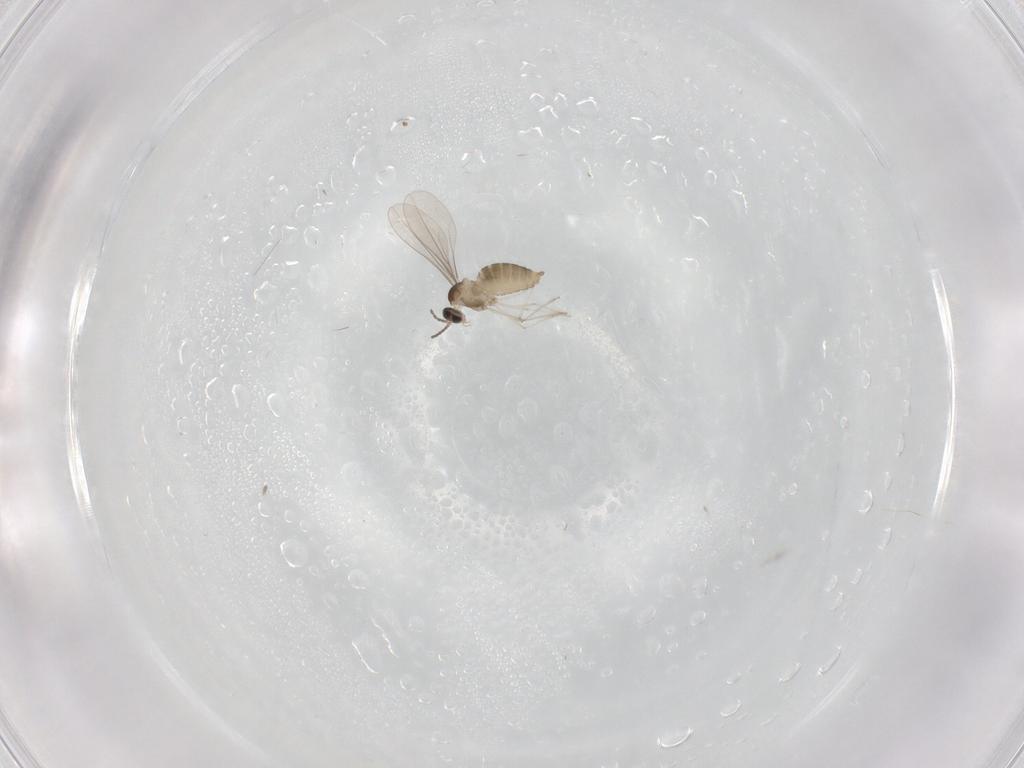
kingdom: Animalia
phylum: Arthropoda
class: Insecta
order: Diptera
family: Cecidomyiidae
